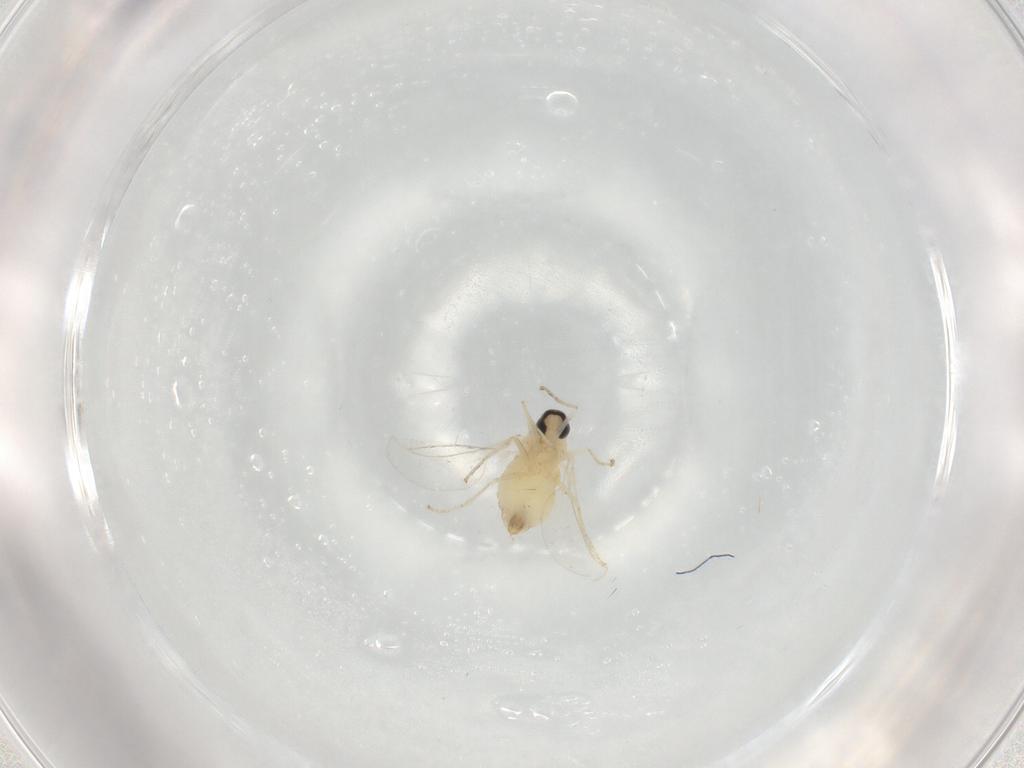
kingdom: Animalia
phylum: Arthropoda
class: Insecta
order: Diptera
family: Cecidomyiidae
